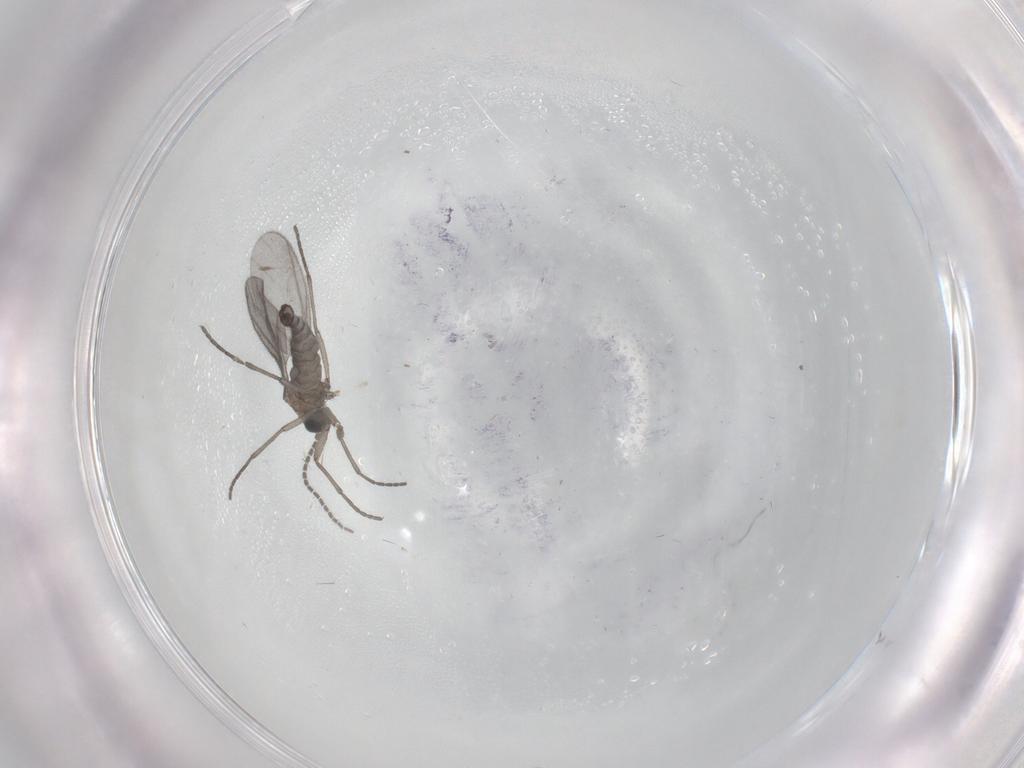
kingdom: Animalia
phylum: Arthropoda
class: Insecta
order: Diptera
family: Sciaridae
